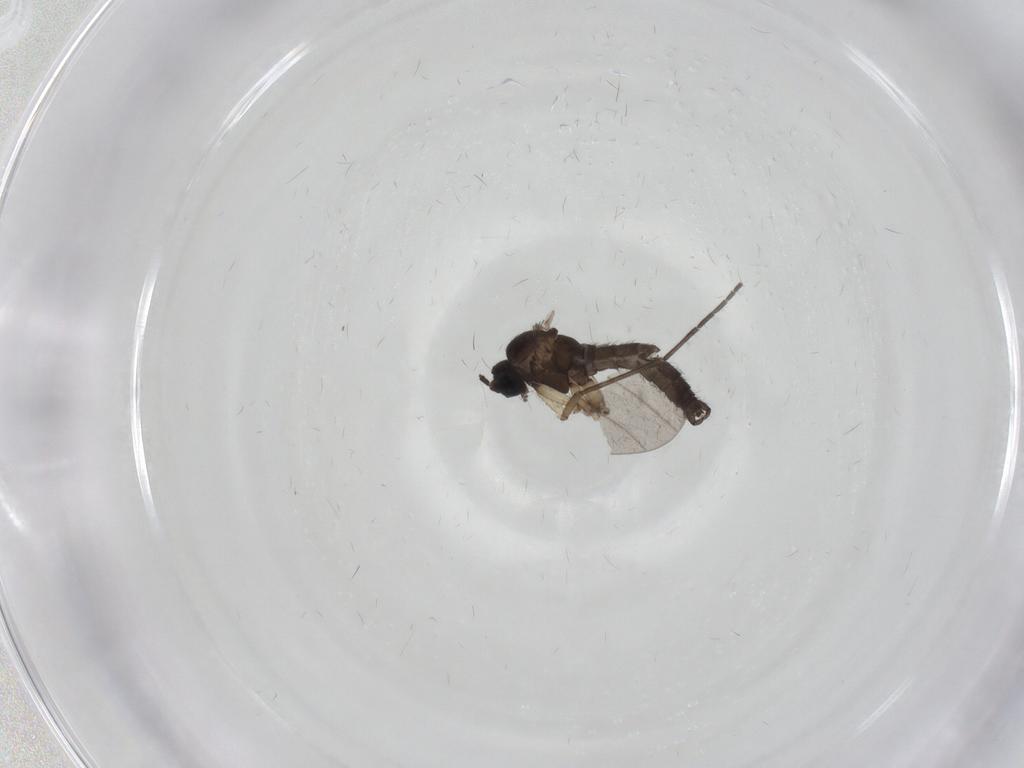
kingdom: Animalia
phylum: Arthropoda
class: Insecta
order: Diptera
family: Sciaridae
